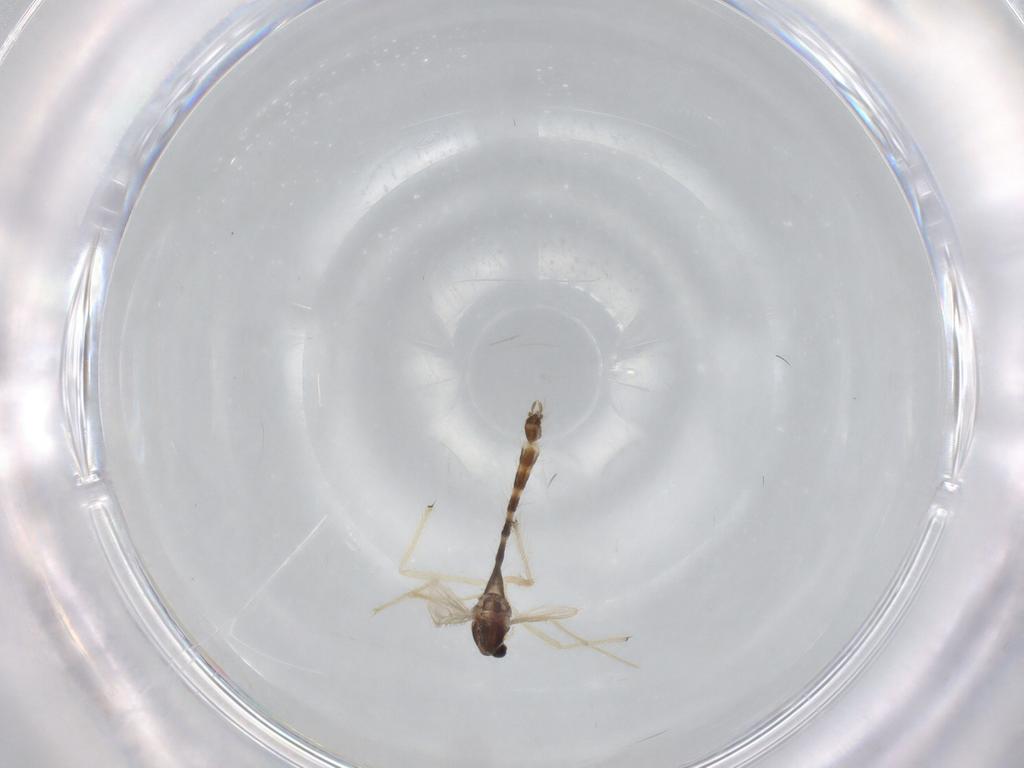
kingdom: Animalia
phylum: Arthropoda
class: Insecta
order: Diptera
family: Chironomidae
